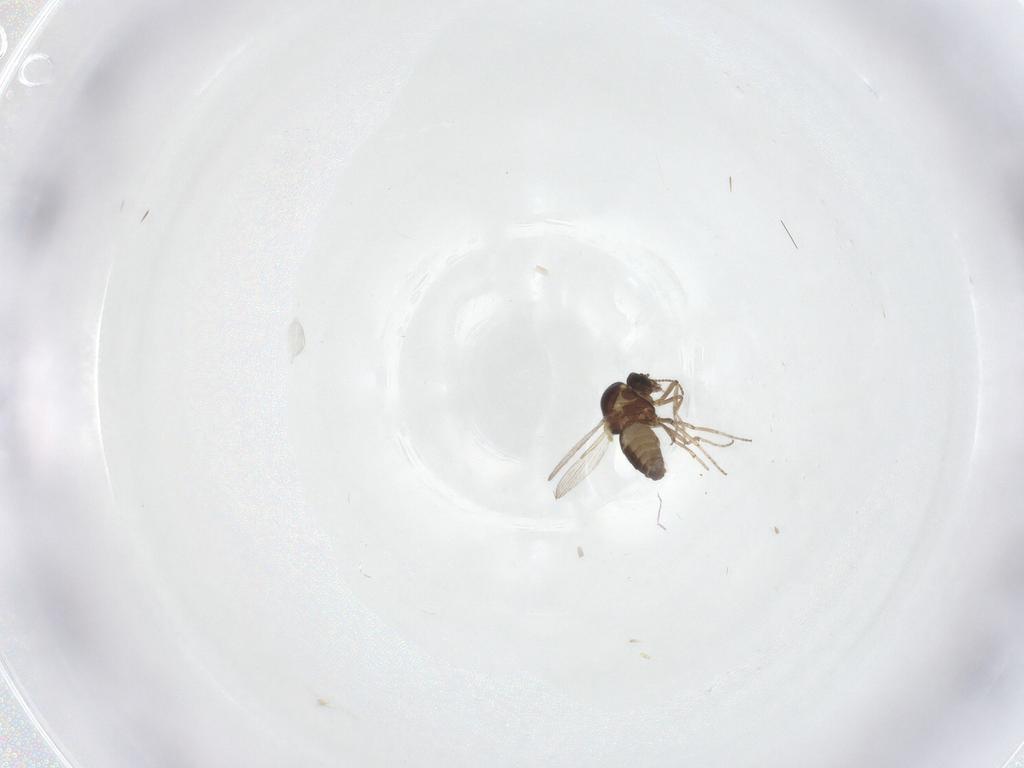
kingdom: Animalia
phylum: Arthropoda
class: Insecta
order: Diptera
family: Ceratopogonidae
